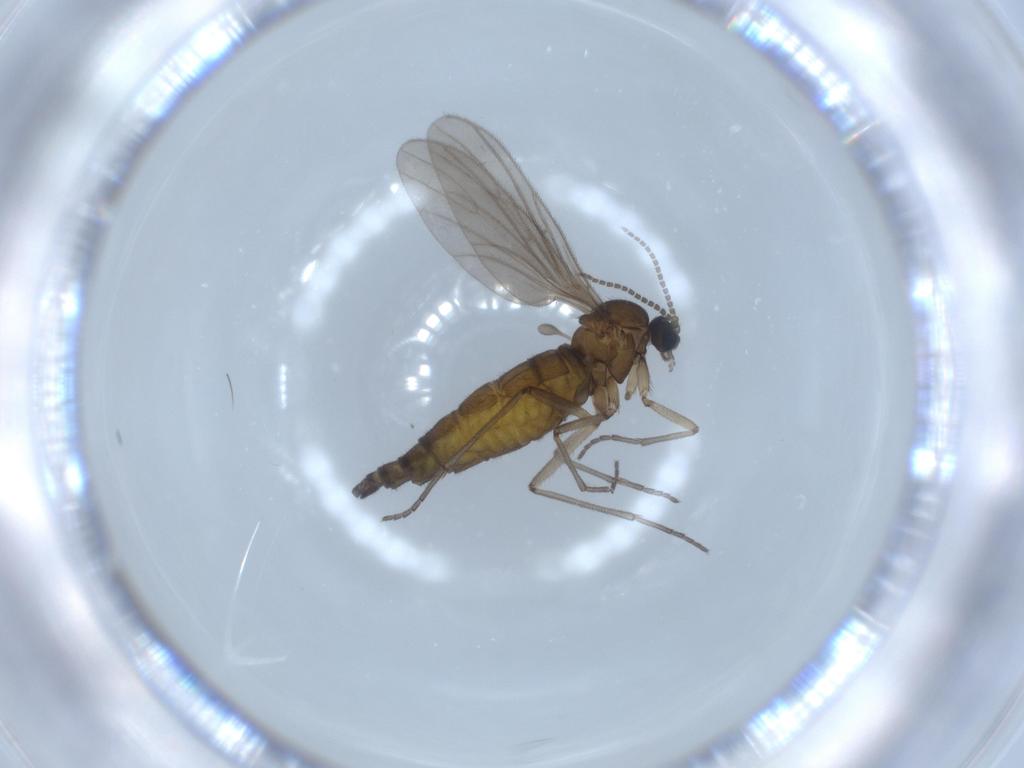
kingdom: Animalia
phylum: Arthropoda
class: Insecta
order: Diptera
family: Sciaridae
